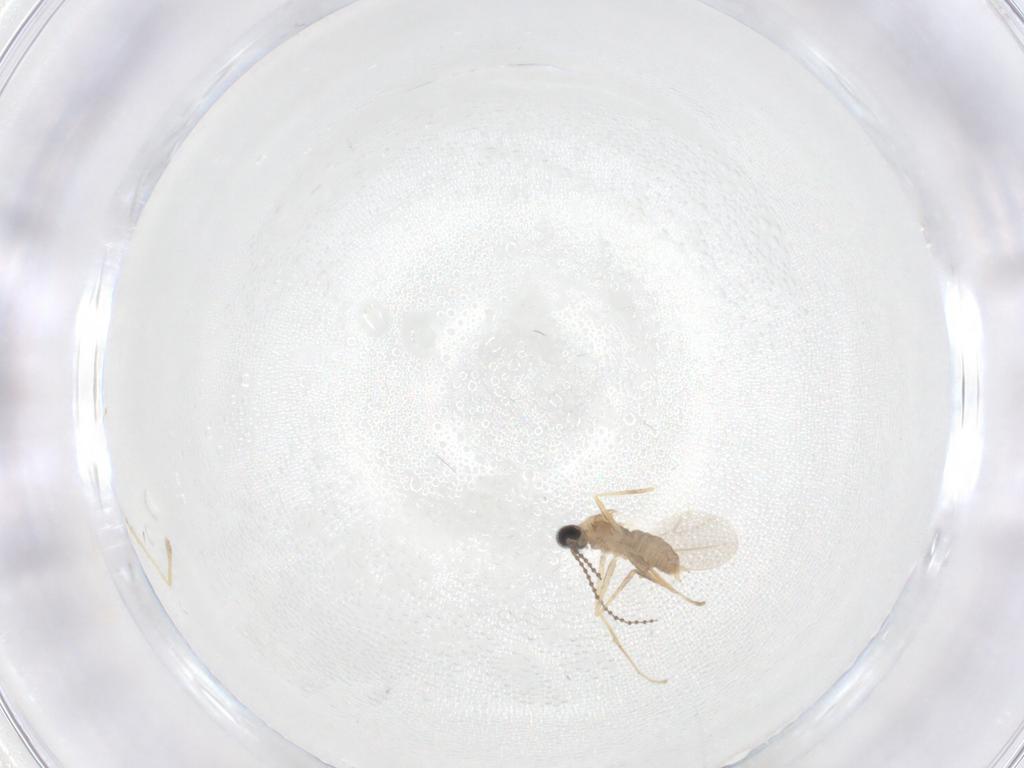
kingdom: Animalia
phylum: Arthropoda
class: Insecta
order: Diptera
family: Cecidomyiidae
